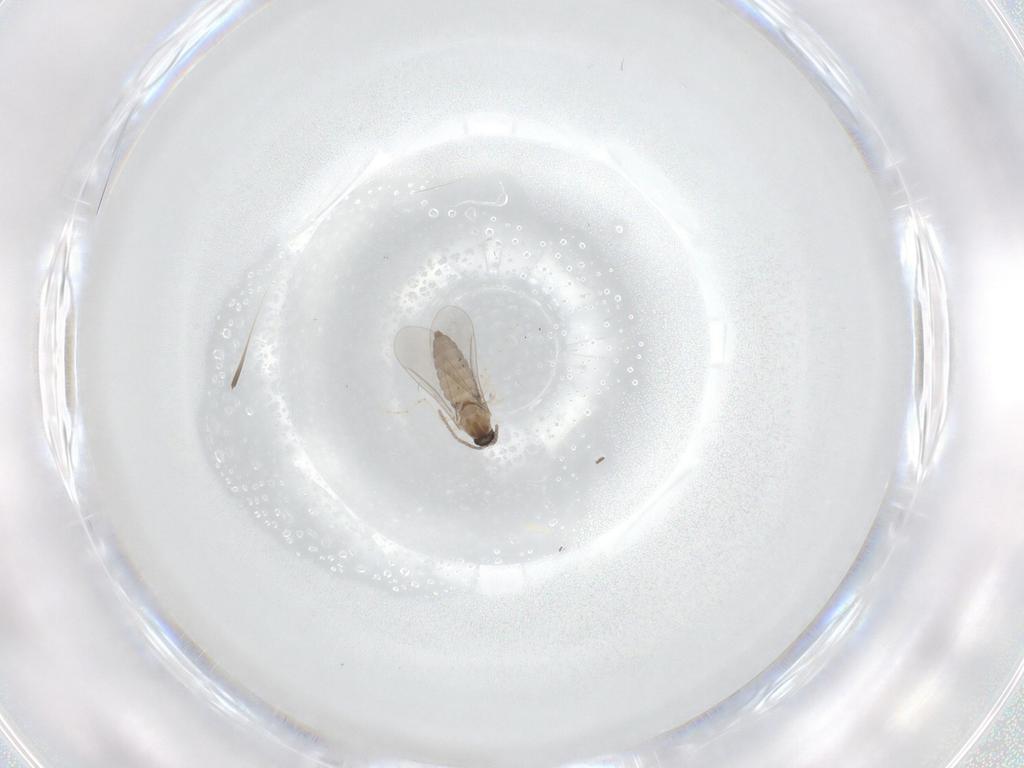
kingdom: Animalia
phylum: Arthropoda
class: Insecta
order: Diptera
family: Cecidomyiidae
